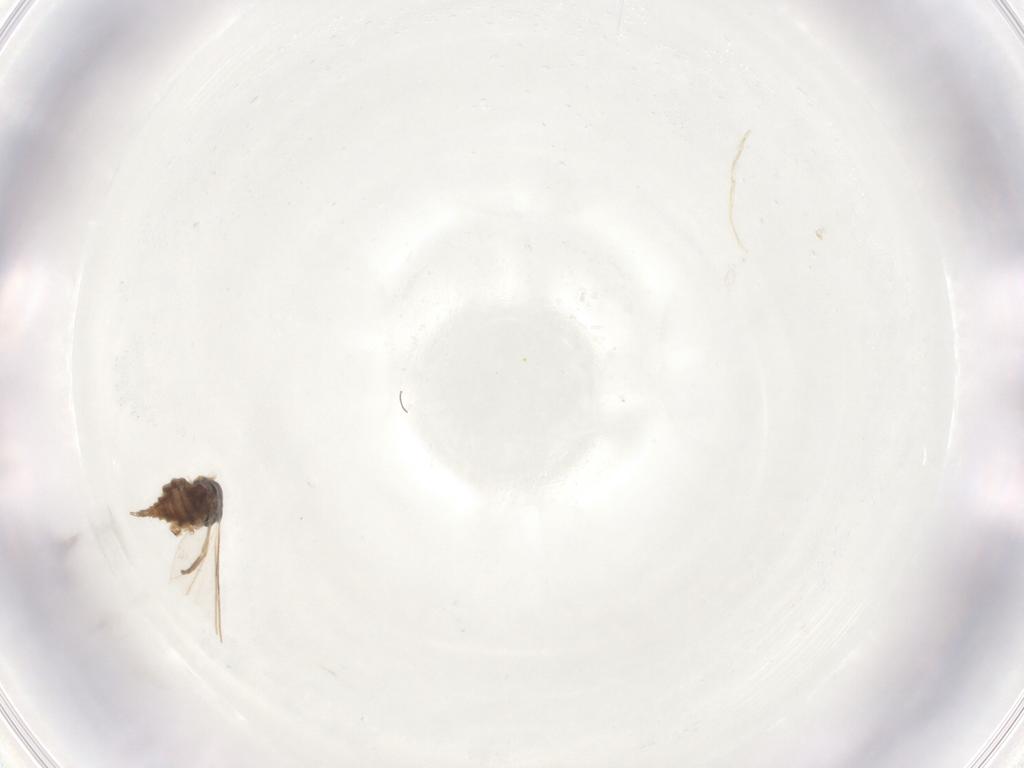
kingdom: Animalia
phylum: Arthropoda
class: Insecta
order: Diptera
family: Sciaridae
